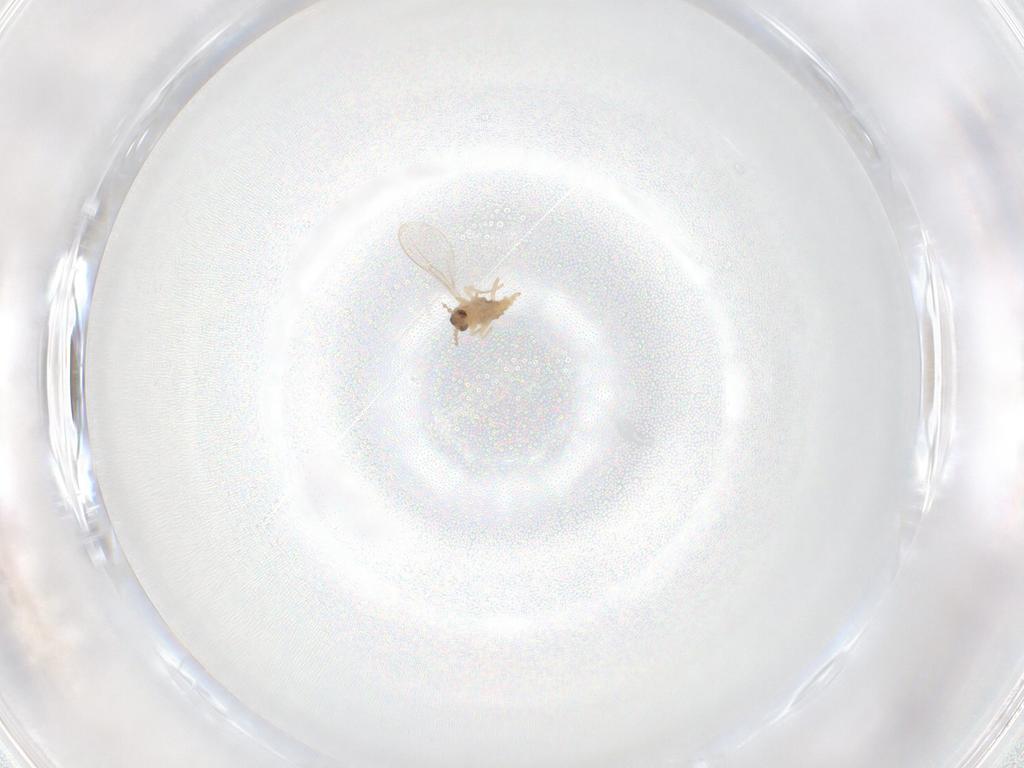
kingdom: Animalia
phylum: Arthropoda
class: Insecta
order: Diptera
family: Cecidomyiidae
